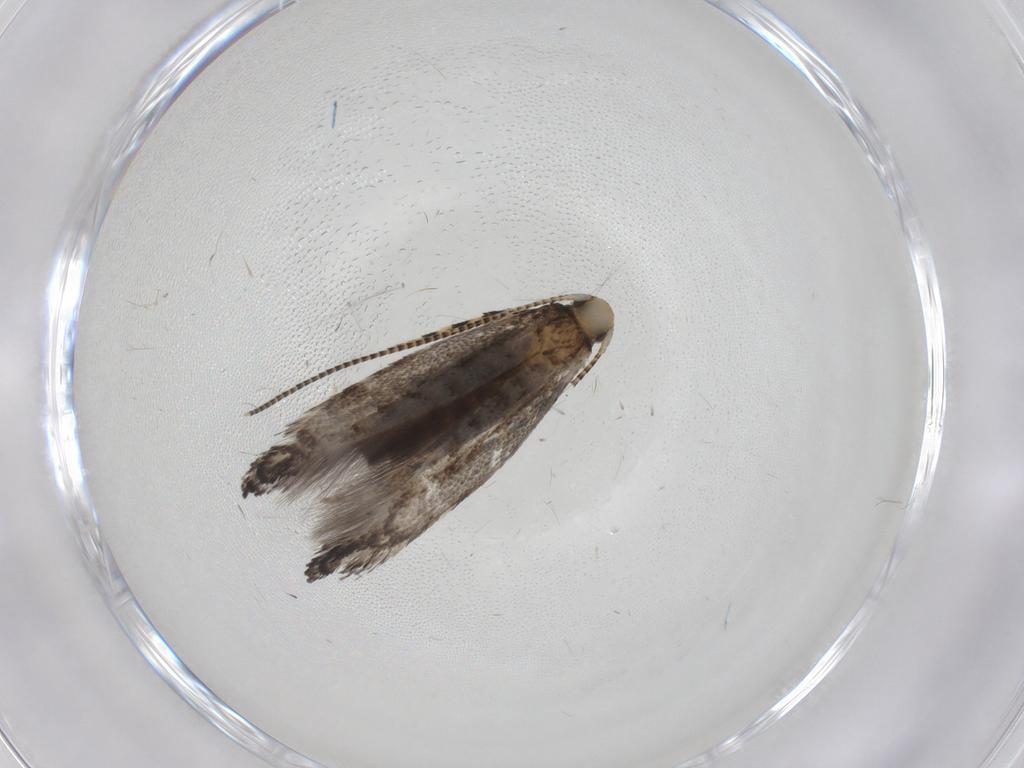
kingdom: Animalia
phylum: Arthropoda
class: Insecta
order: Lepidoptera
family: Gracillariidae
